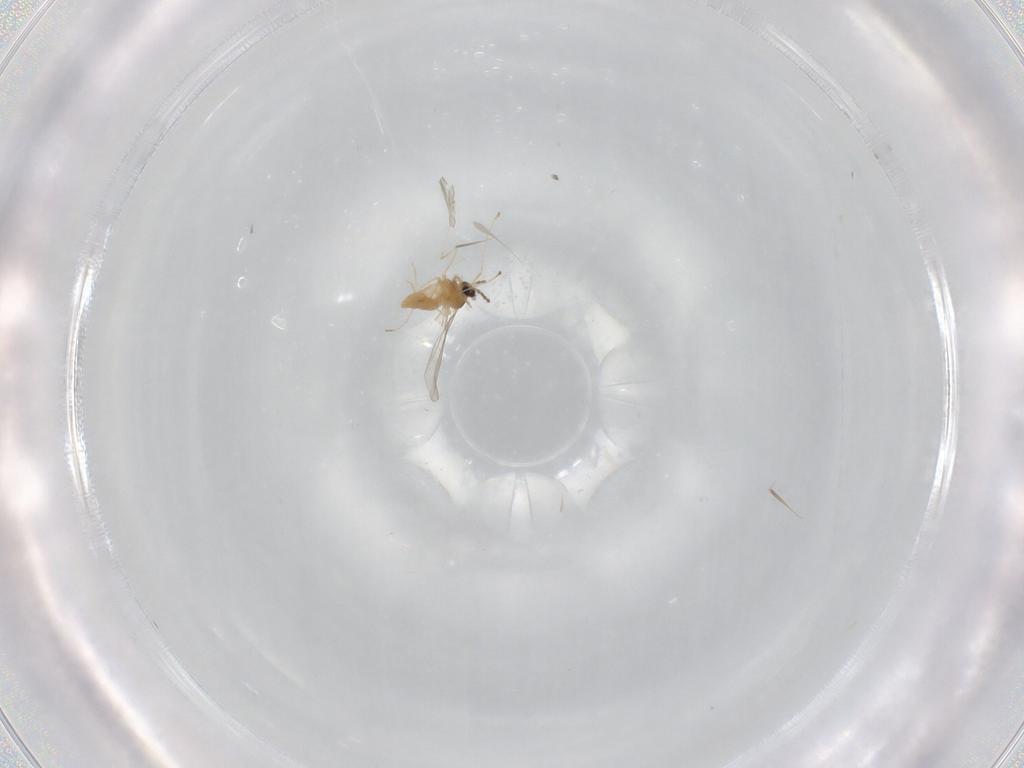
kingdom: Animalia
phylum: Arthropoda
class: Insecta
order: Diptera
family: Cecidomyiidae
